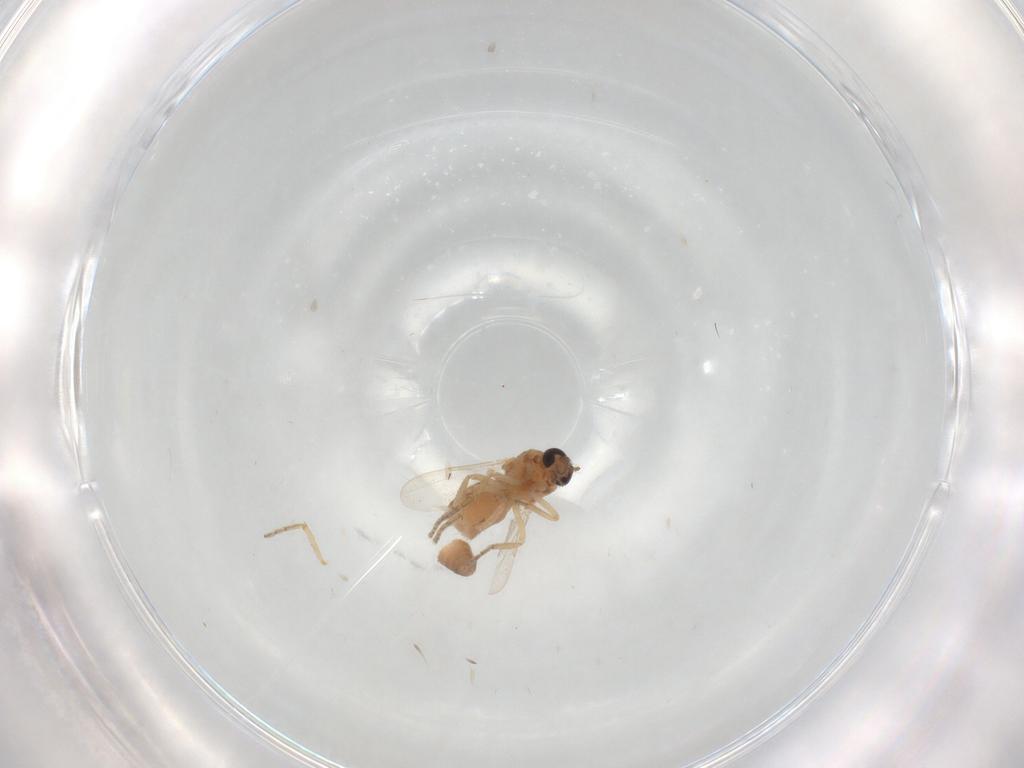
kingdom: Animalia
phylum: Arthropoda
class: Insecta
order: Diptera
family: Ceratopogonidae
